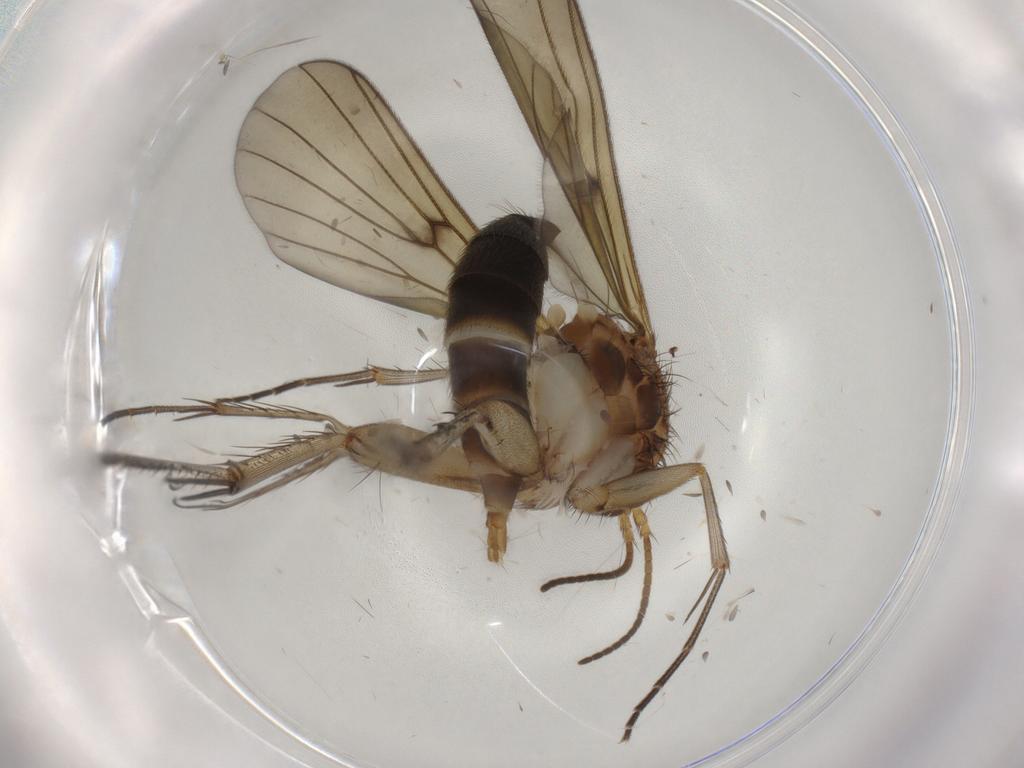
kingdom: Animalia
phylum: Arthropoda
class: Insecta
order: Diptera
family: Mycetophilidae
